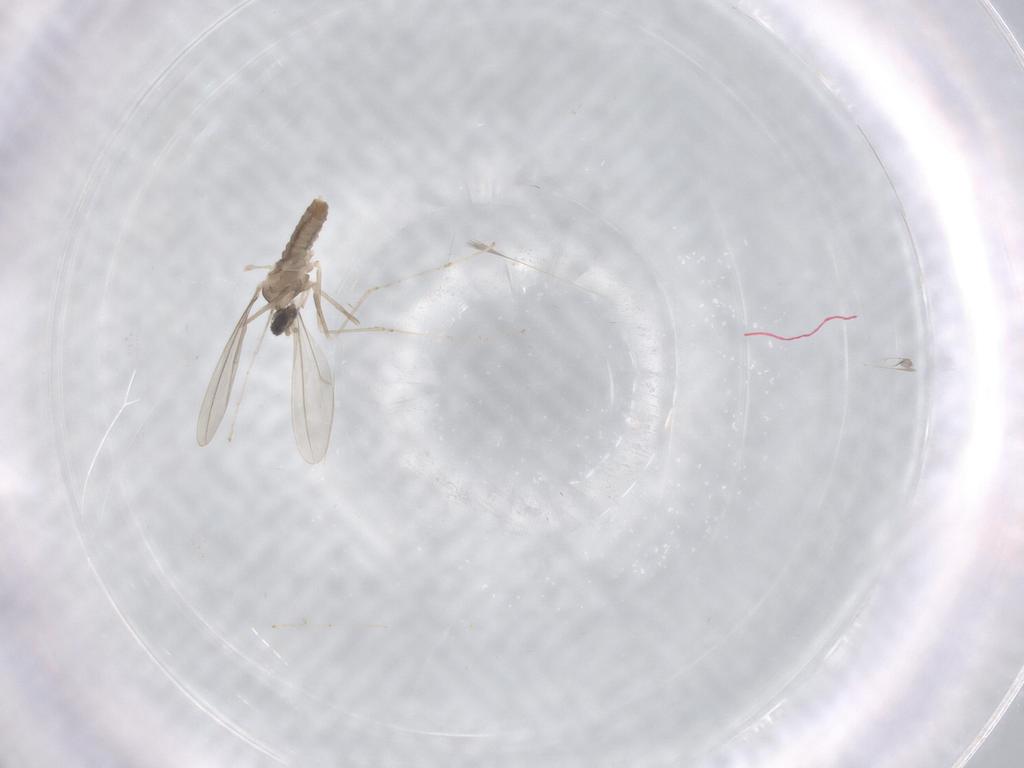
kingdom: Animalia
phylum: Arthropoda
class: Insecta
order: Diptera
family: Cecidomyiidae
